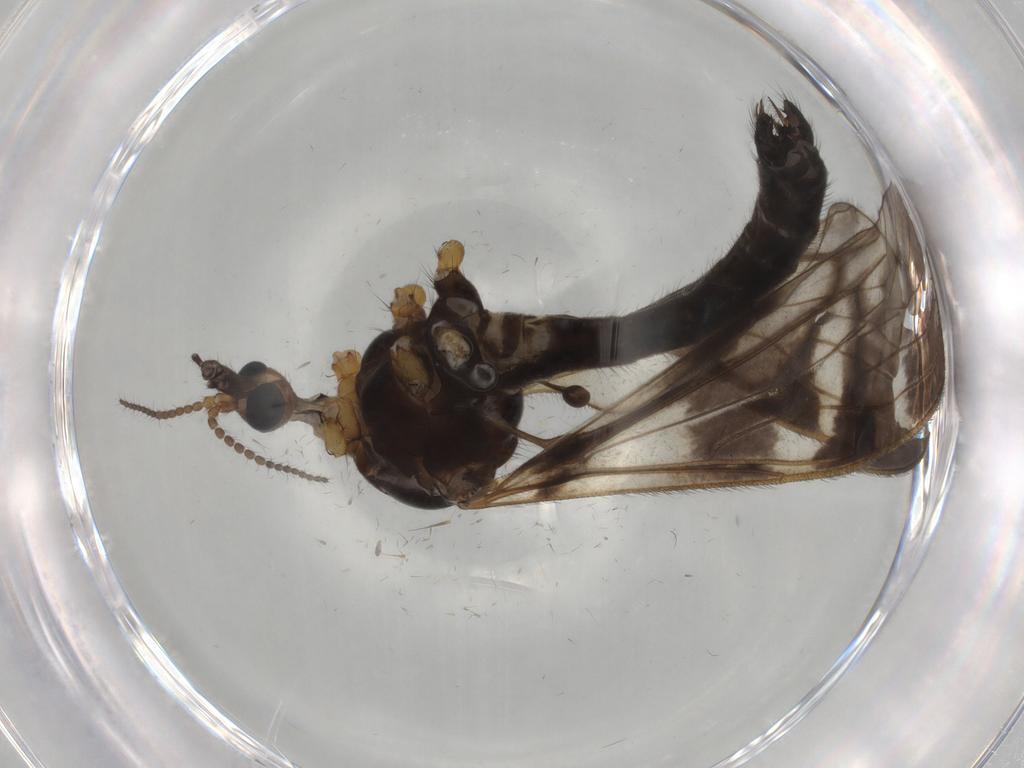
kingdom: Animalia
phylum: Arthropoda
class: Insecta
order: Diptera
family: Limoniidae
